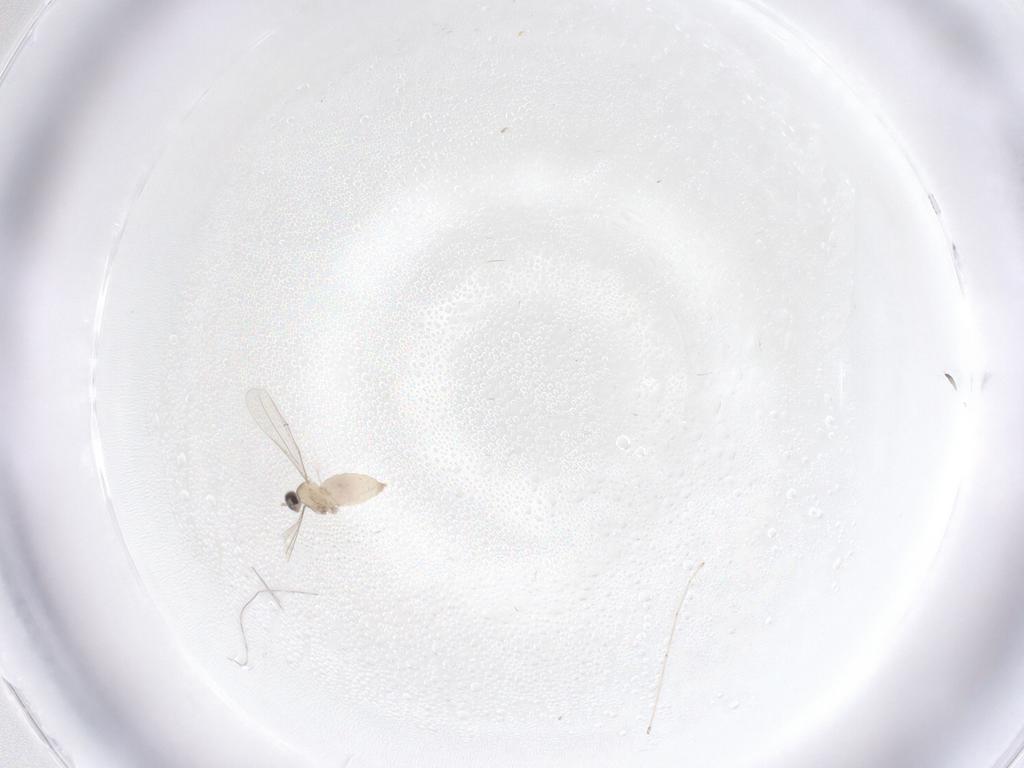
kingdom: Animalia
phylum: Arthropoda
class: Insecta
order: Diptera
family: Cecidomyiidae
